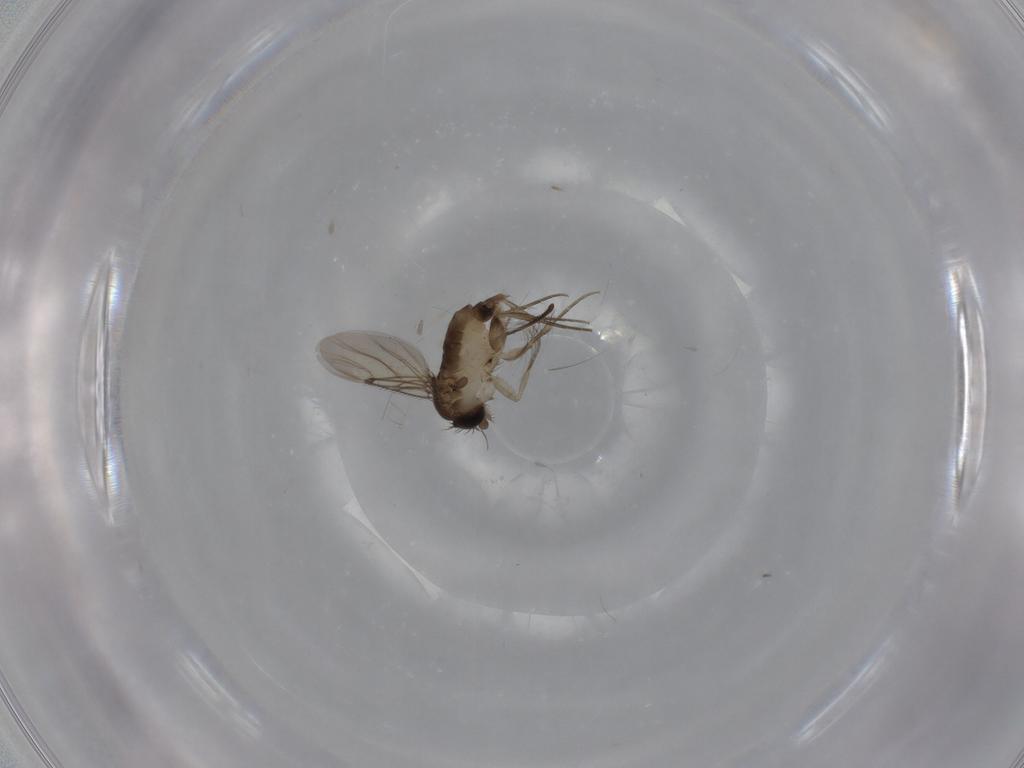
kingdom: Animalia
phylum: Arthropoda
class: Insecta
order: Diptera
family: Phoridae
